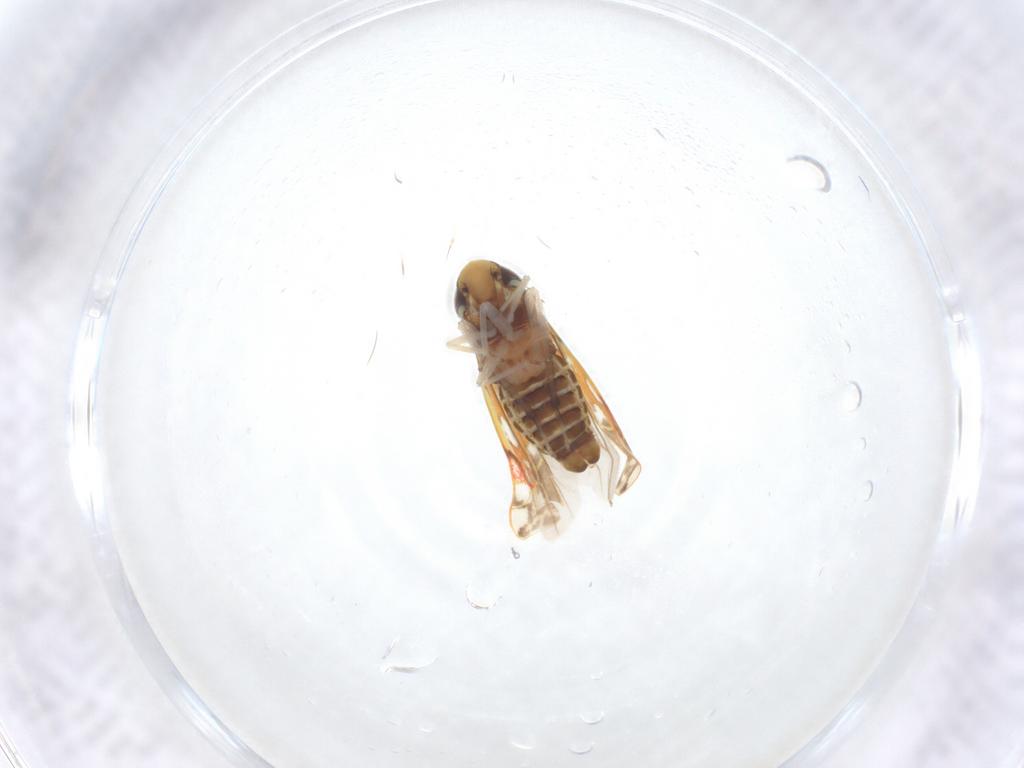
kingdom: Animalia
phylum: Arthropoda
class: Insecta
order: Hemiptera
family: Cicadellidae
